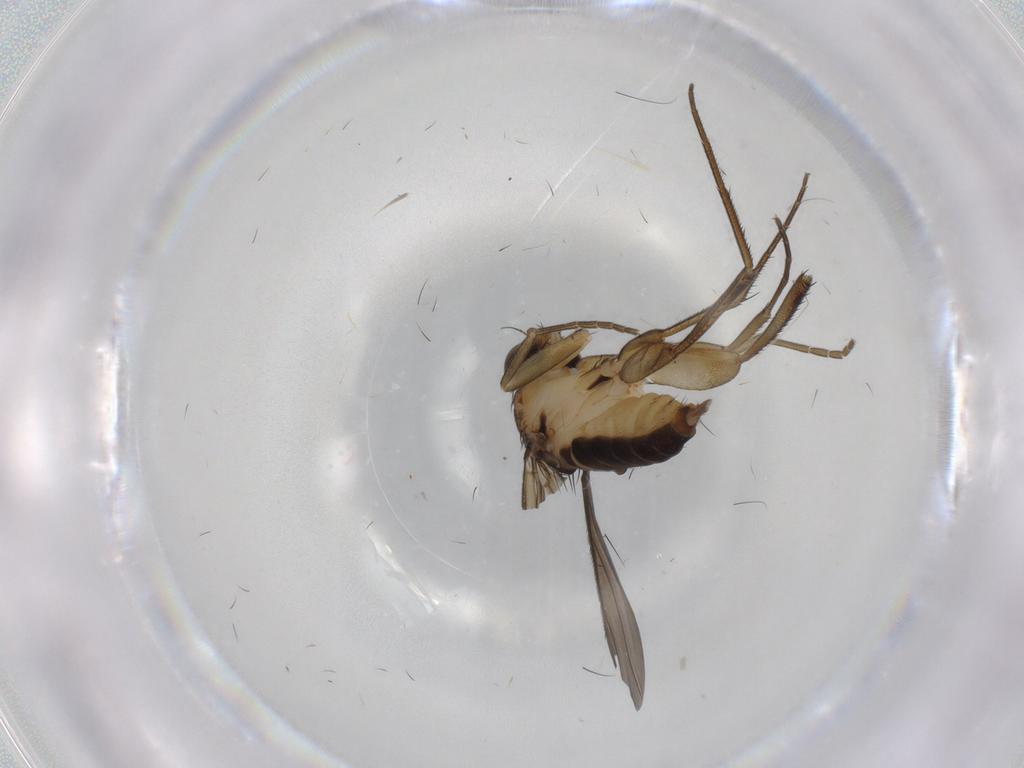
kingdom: Animalia
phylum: Arthropoda
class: Insecta
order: Diptera
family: Phoridae
